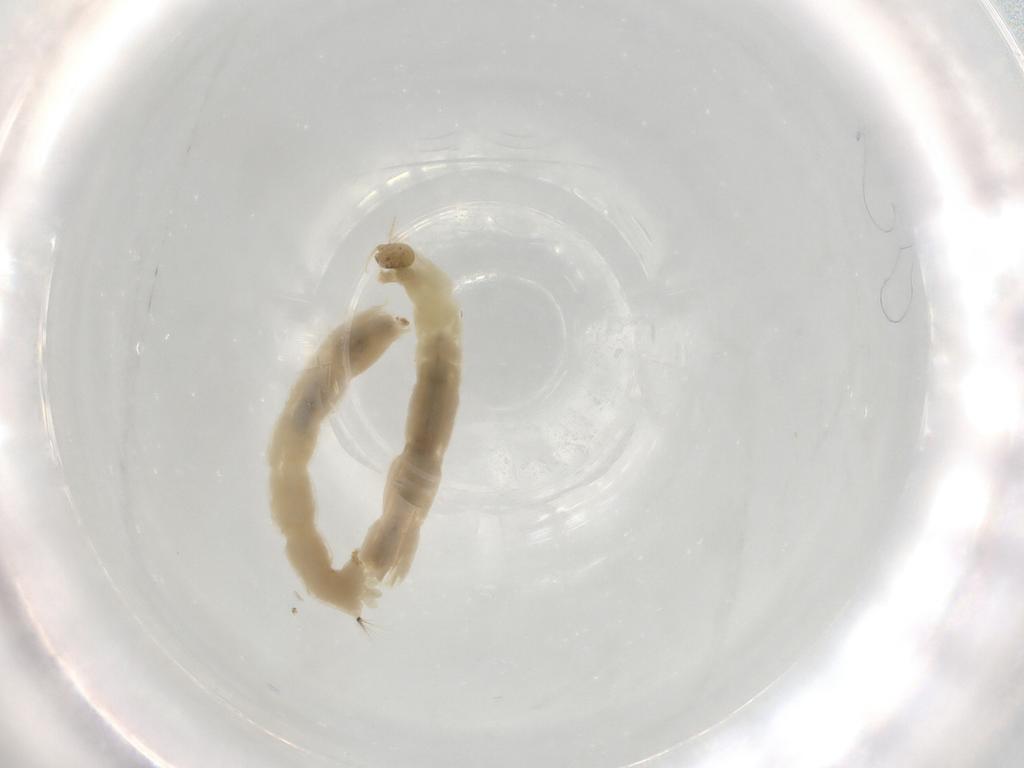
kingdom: Animalia
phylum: Arthropoda
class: Insecta
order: Diptera
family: Chironomidae
